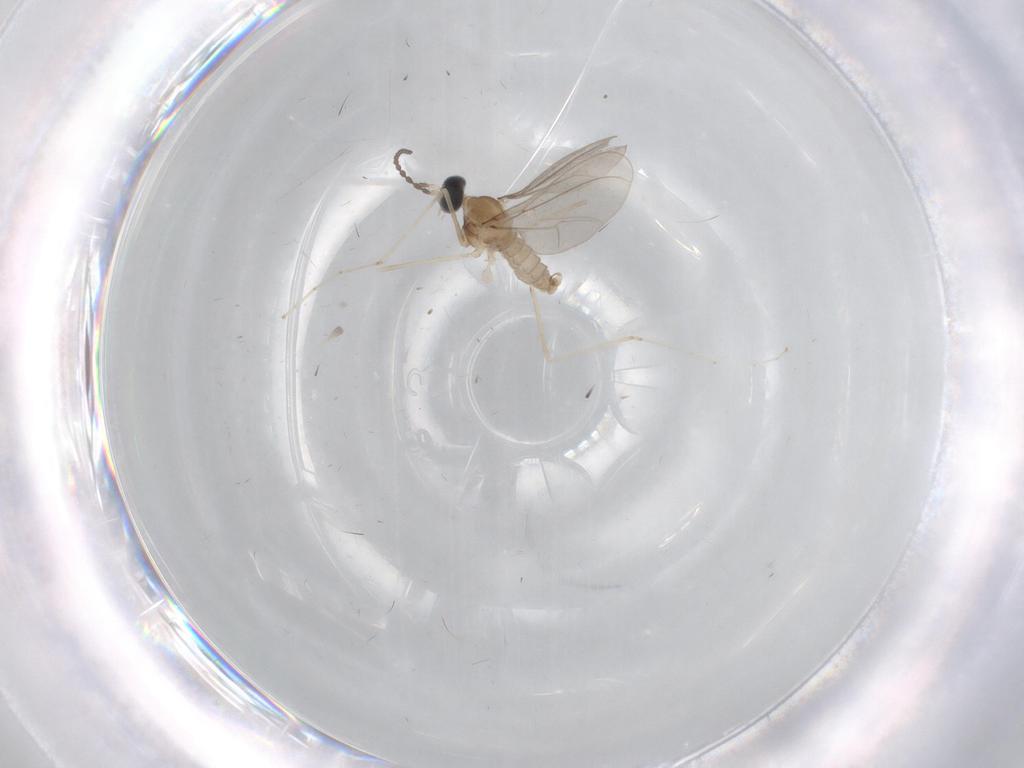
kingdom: Animalia
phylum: Arthropoda
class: Insecta
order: Diptera
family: Cecidomyiidae
